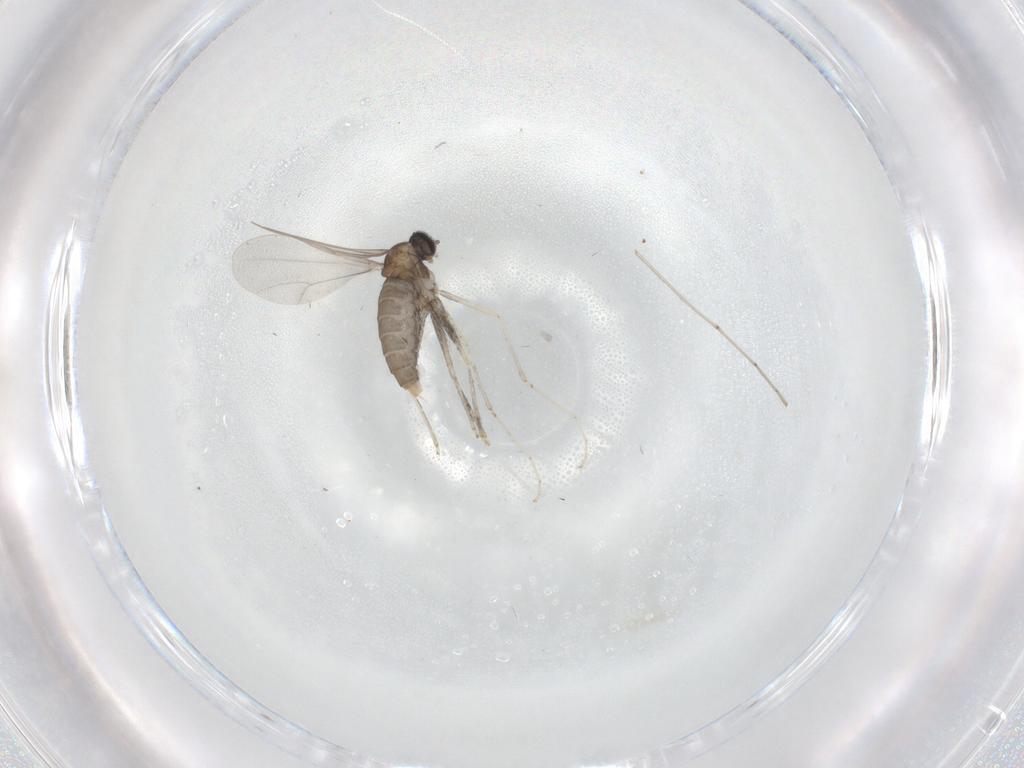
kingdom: Animalia
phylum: Arthropoda
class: Insecta
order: Diptera
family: Cecidomyiidae
